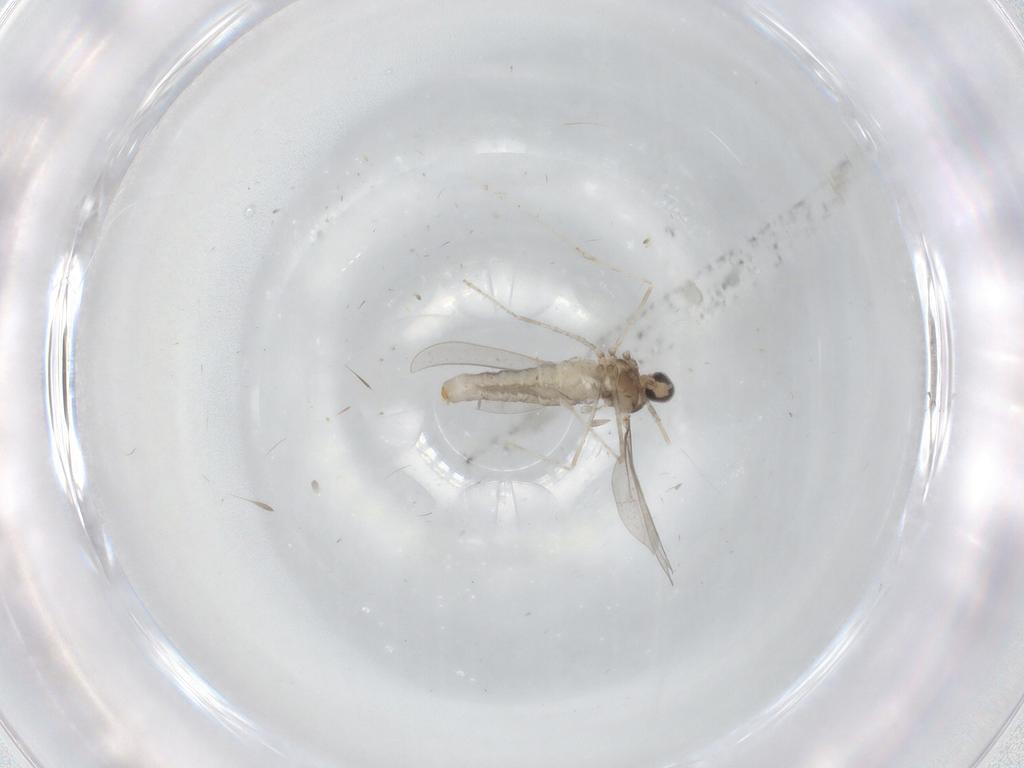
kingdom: Animalia
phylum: Arthropoda
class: Insecta
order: Diptera
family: Cecidomyiidae
